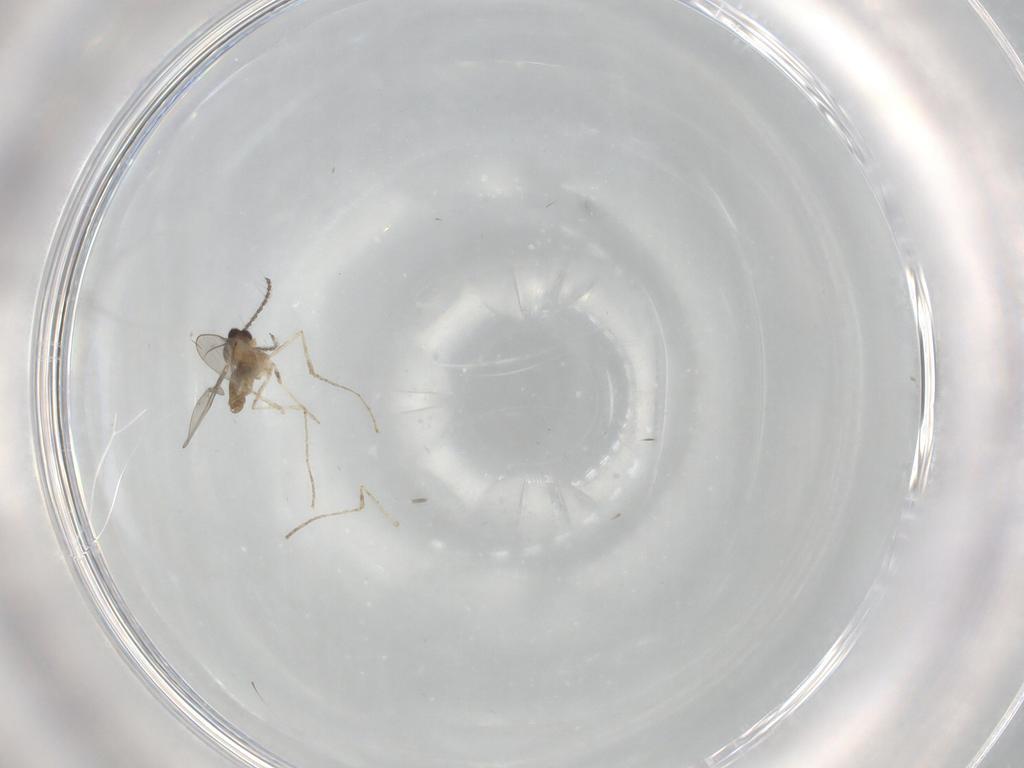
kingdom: Animalia
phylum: Arthropoda
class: Insecta
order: Diptera
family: Cecidomyiidae
